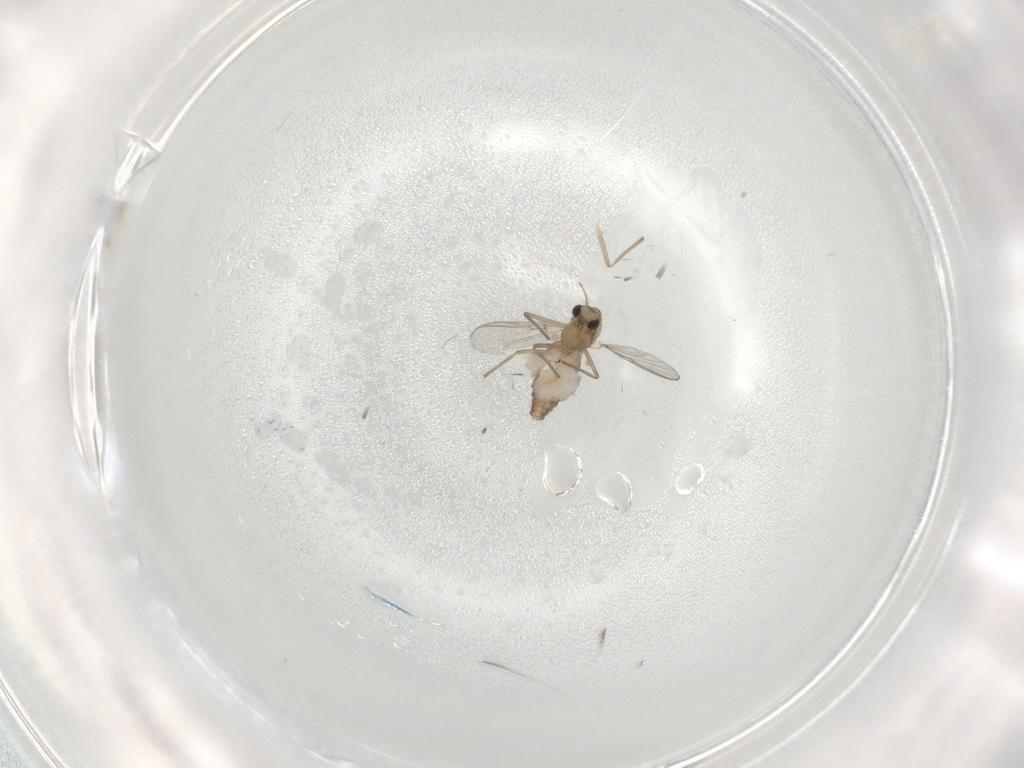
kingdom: Animalia
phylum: Arthropoda
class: Insecta
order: Diptera
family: Chironomidae
